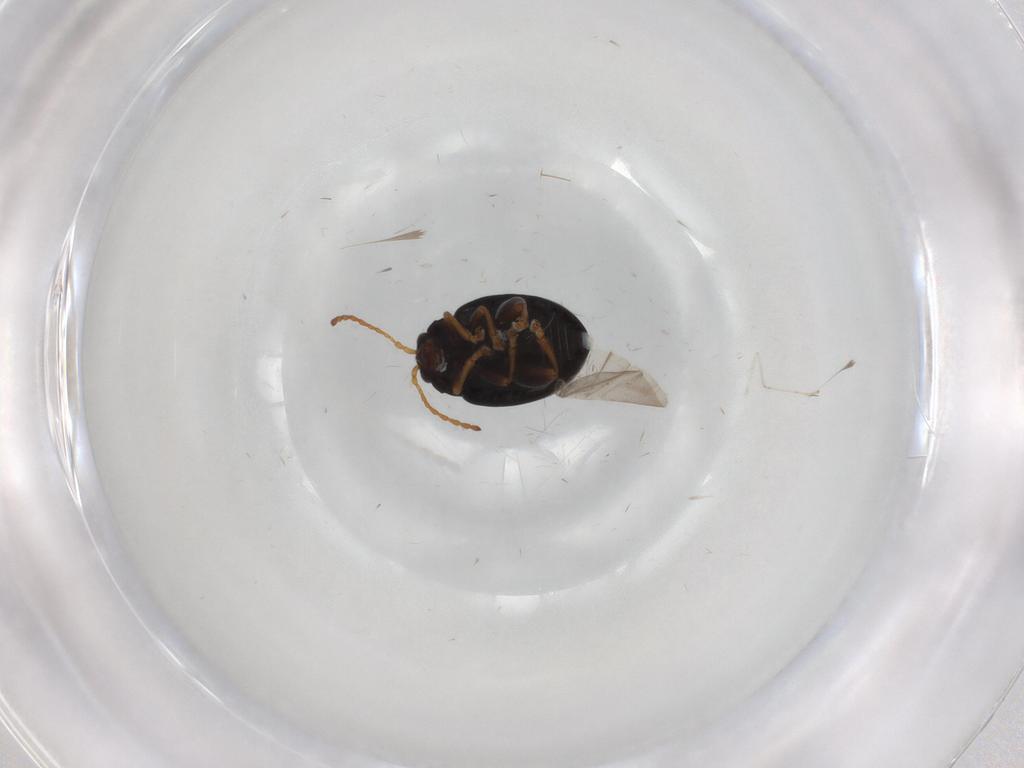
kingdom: Animalia
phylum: Arthropoda
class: Insecta
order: Coleoptera
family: Chrysomelidae
